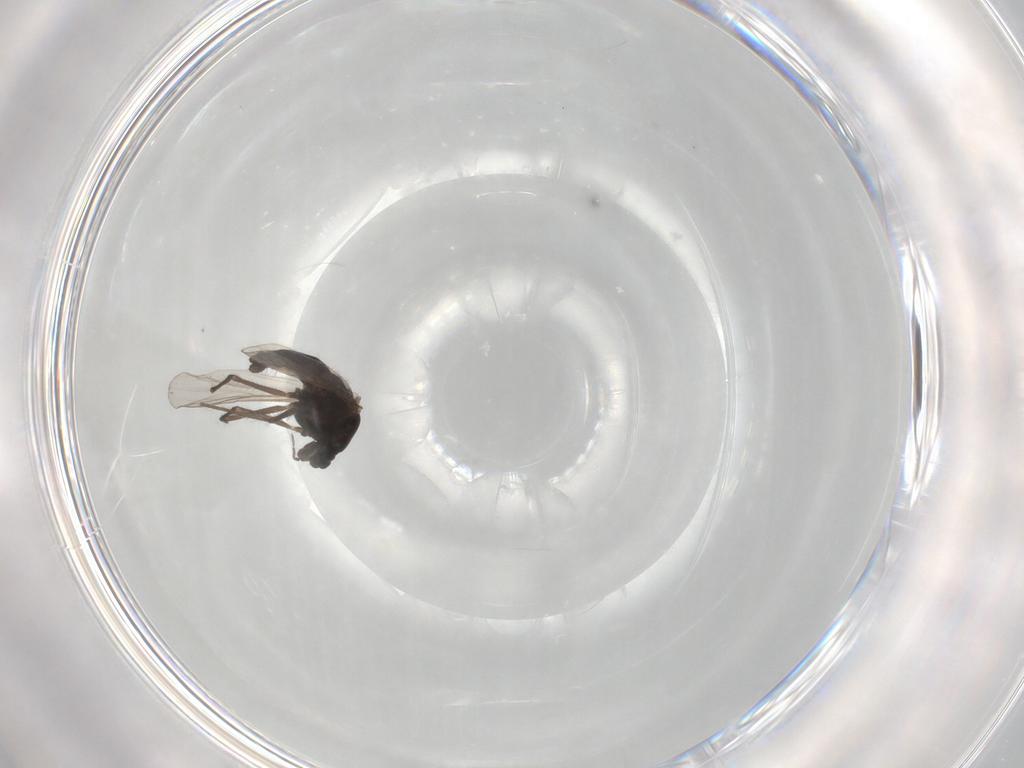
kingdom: Animalia
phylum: Arthropoda
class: Insecta
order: Diptera
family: Chironomidae
